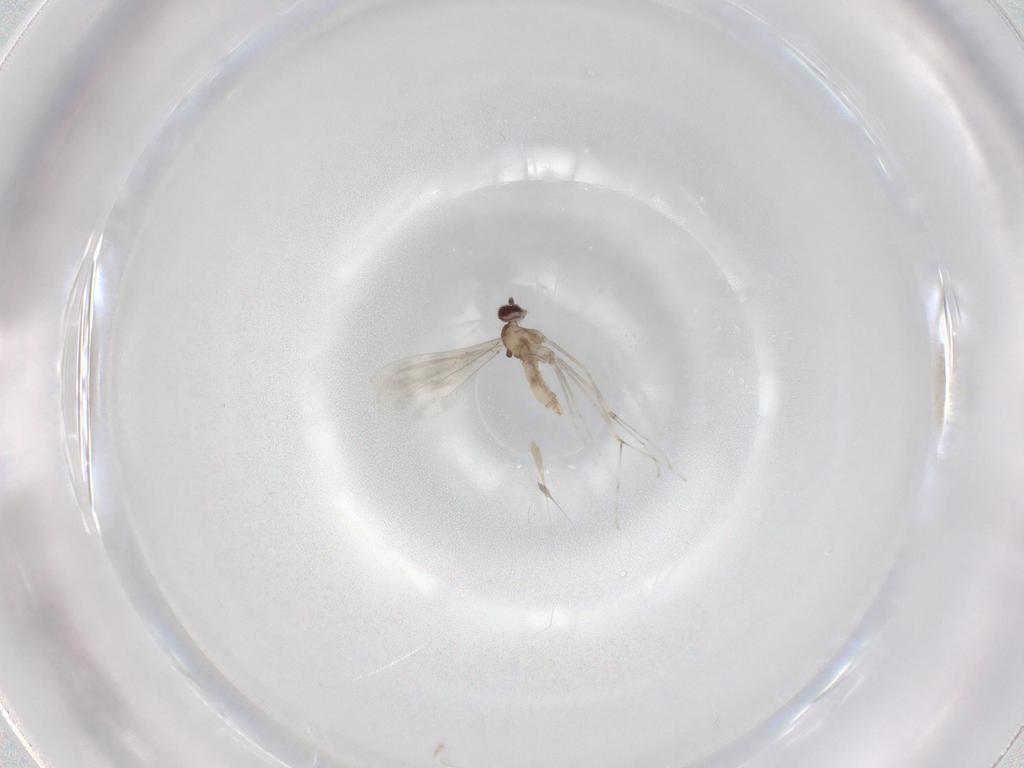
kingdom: Animalia
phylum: Arthropoda
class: Insecta
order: Diptera
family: Cecidomyiidae
